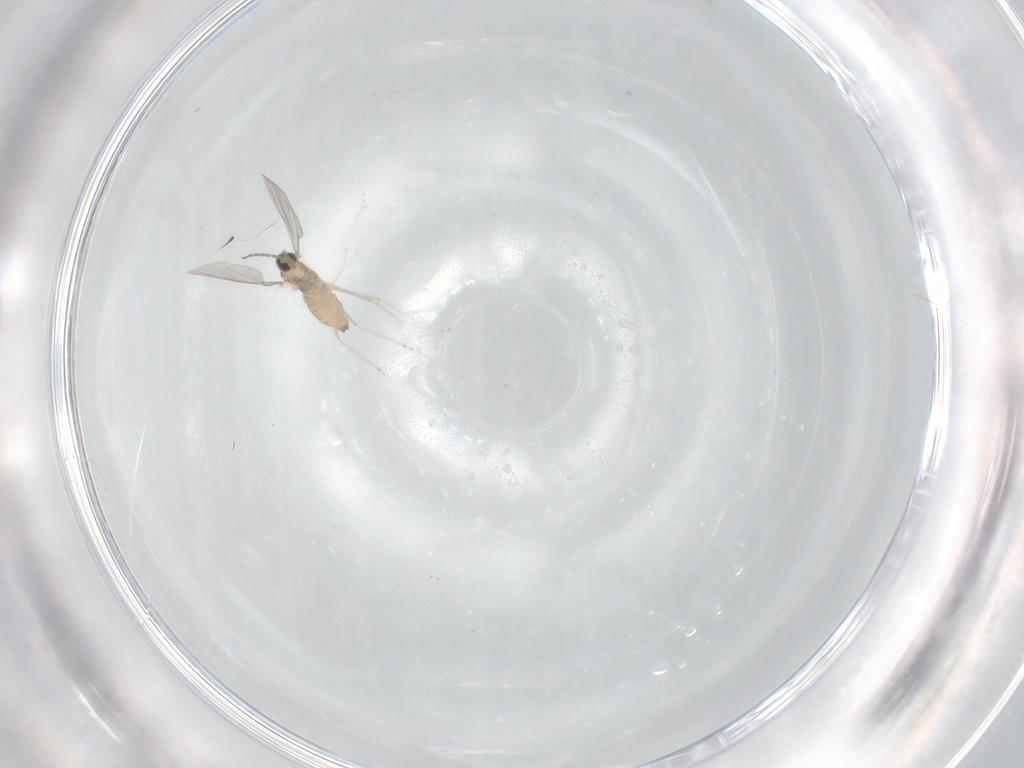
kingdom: Animalia
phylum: Arthropoda
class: Insecta
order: Diptera
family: Cecidomyiidae
